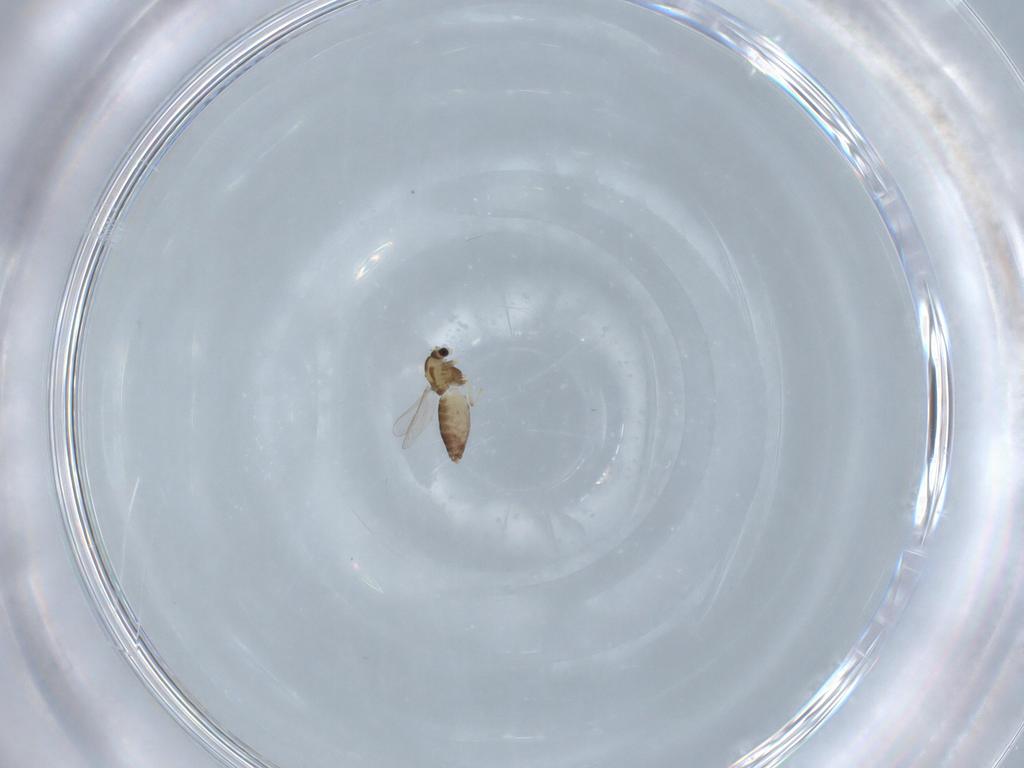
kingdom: Animalia
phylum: Arthropoda
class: Insecta
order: Diptera
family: Chironomidae
